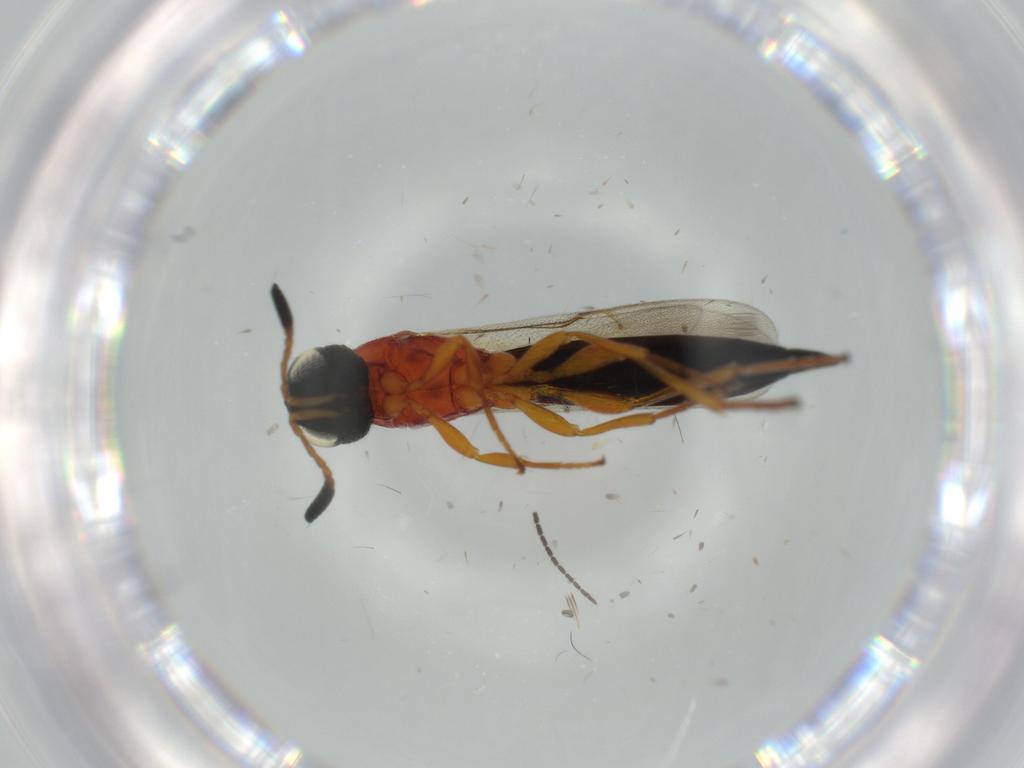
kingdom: Animalia
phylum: Arthropoda
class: Insecta
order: Hymenoptera
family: Scelionidae
